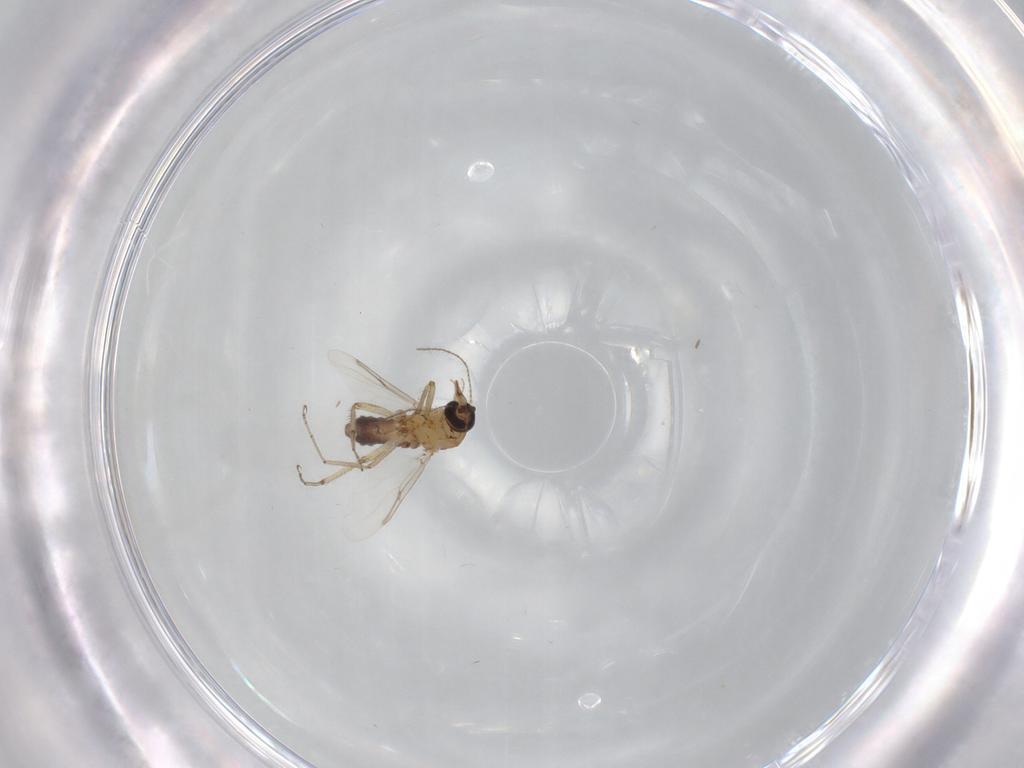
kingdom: Animalia
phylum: Arthropoda
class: Insecta
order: Diptera
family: Ceratopogonidae
